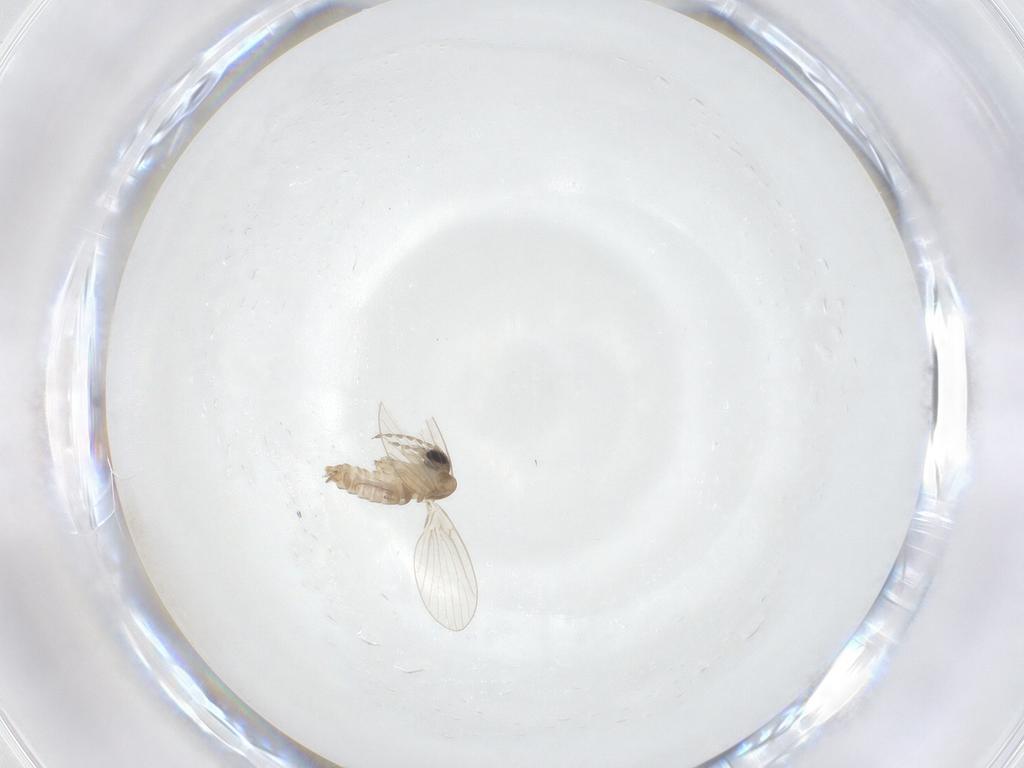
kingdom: Animalia
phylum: Arthropoda
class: Insecta
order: Diptera
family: Psychodidae
